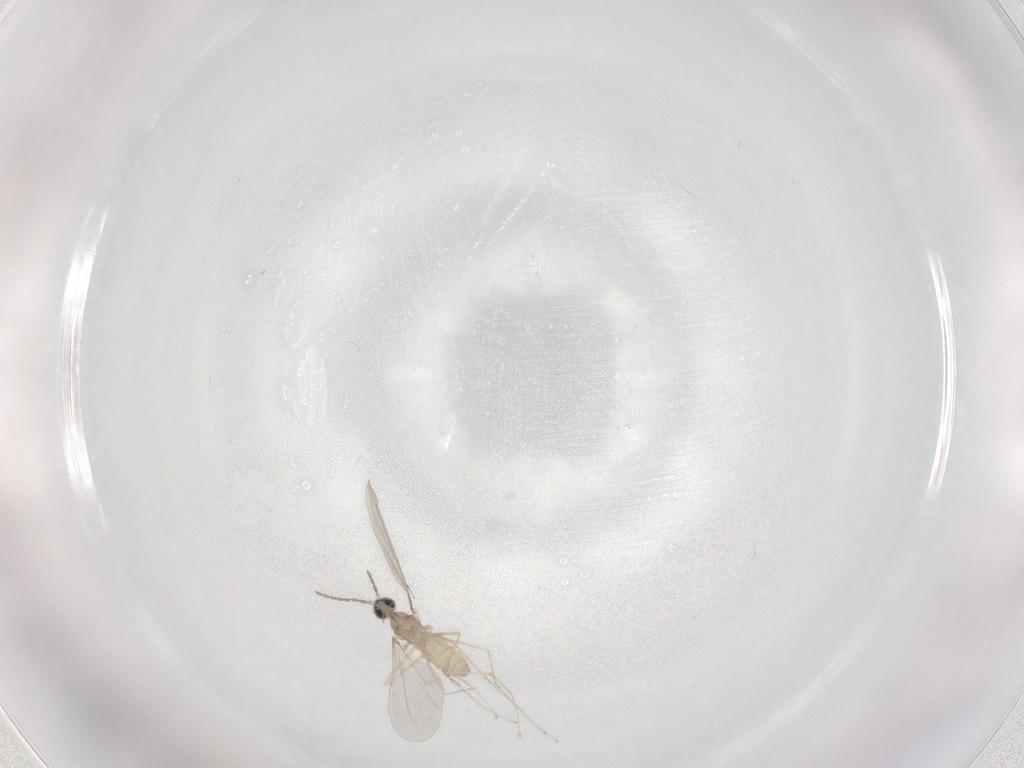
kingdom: Animalia
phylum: Arthropoda
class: Insecta
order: Diptera
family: Cecidomyiidae
